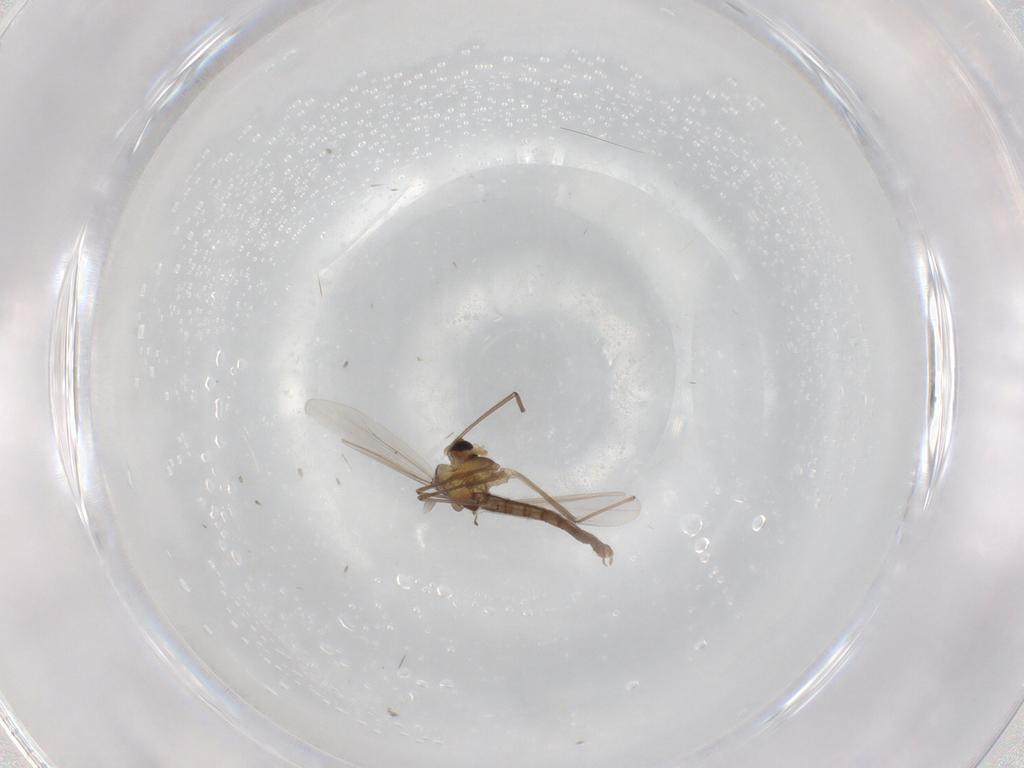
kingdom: Animalia
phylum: Arthropoda
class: Insecta
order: Diptera
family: Chironomidae
